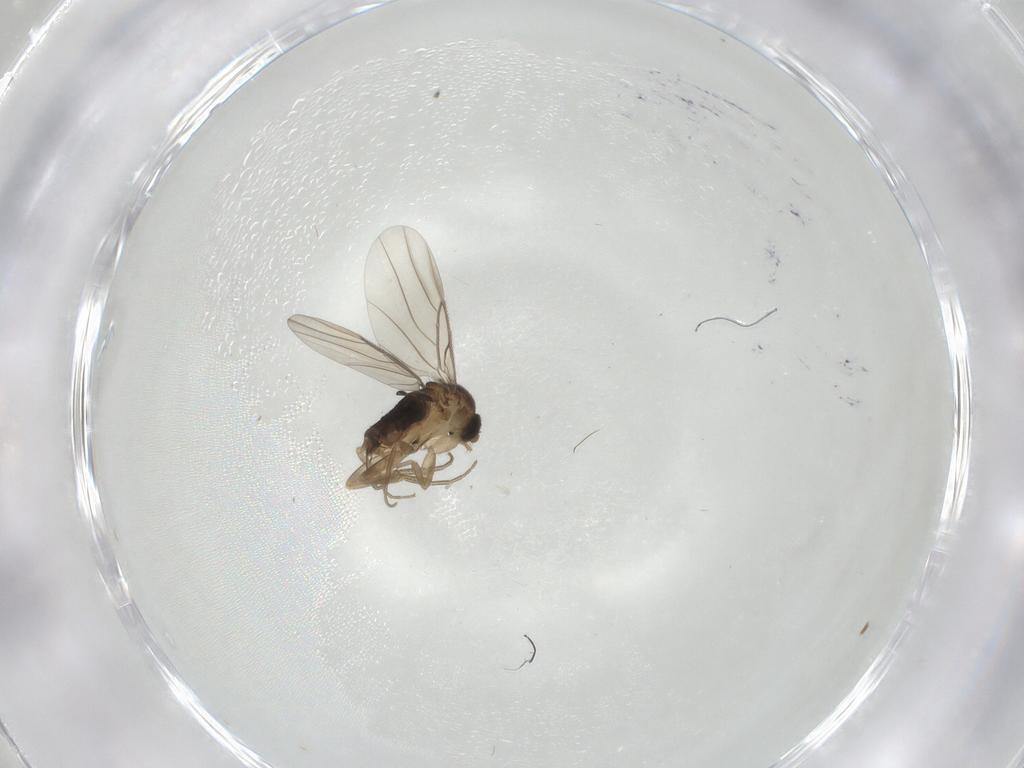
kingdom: Animalia
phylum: Arthropoda
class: Insecta
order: Diptera
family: Phoridae
